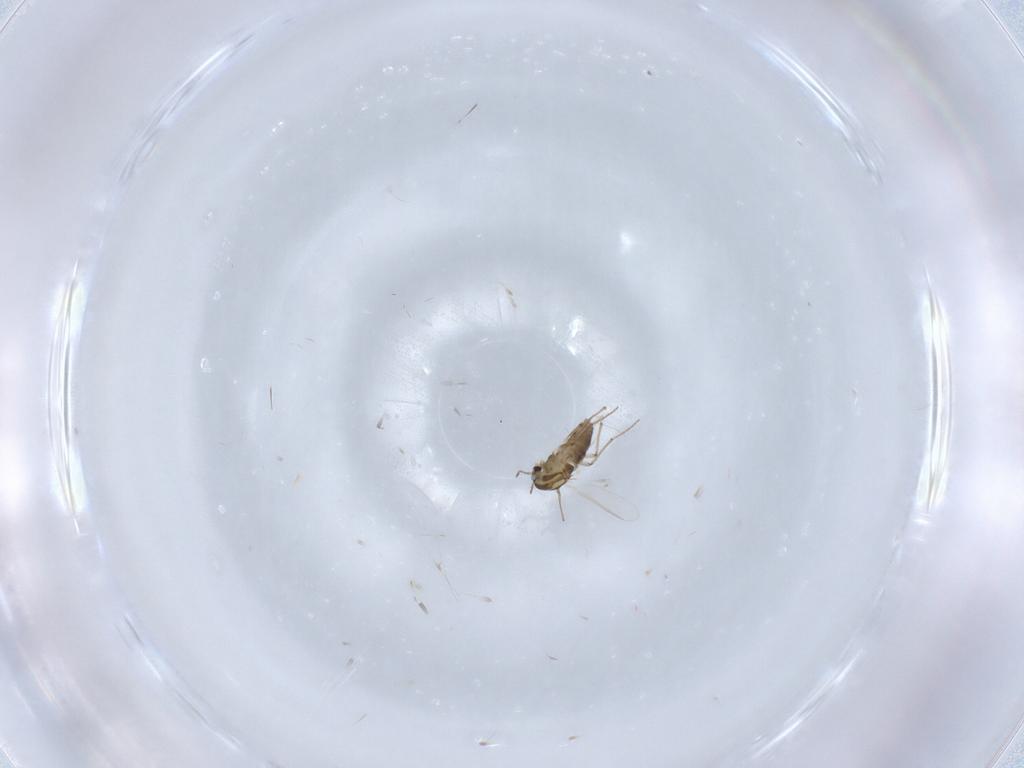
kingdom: Animalia
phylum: Arthropoda
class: Insecta
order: Diptera
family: Chironomidae
